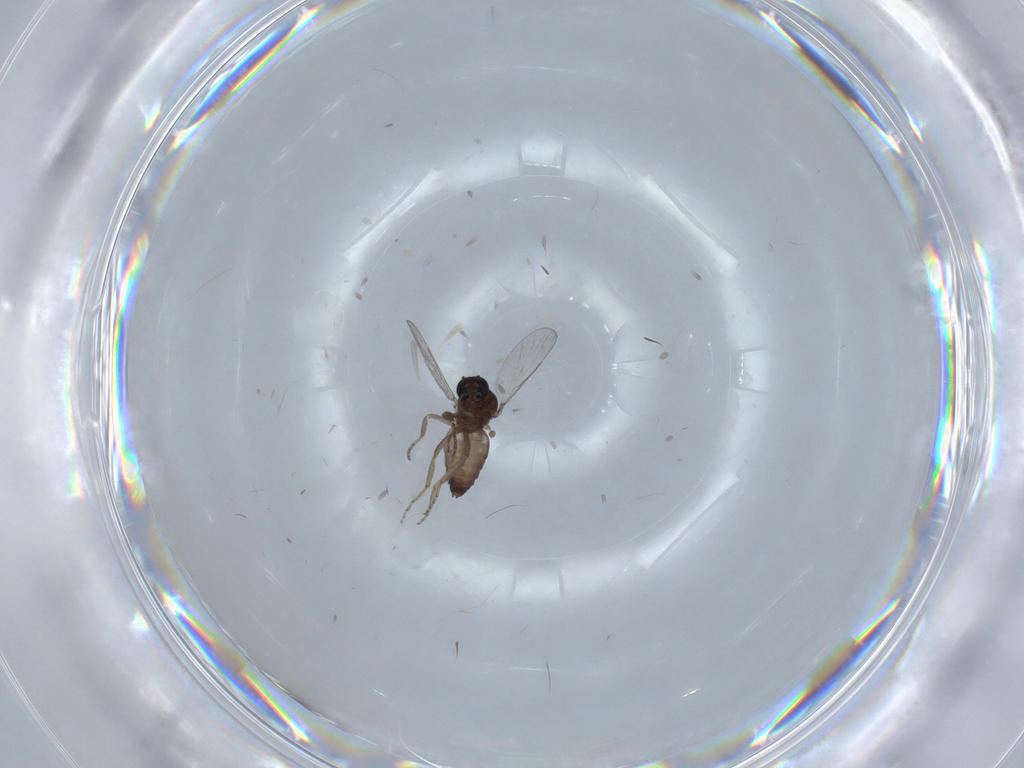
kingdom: Animalia
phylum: Arthropoda
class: Insecta
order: Diptera
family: Ceratopogonidae
